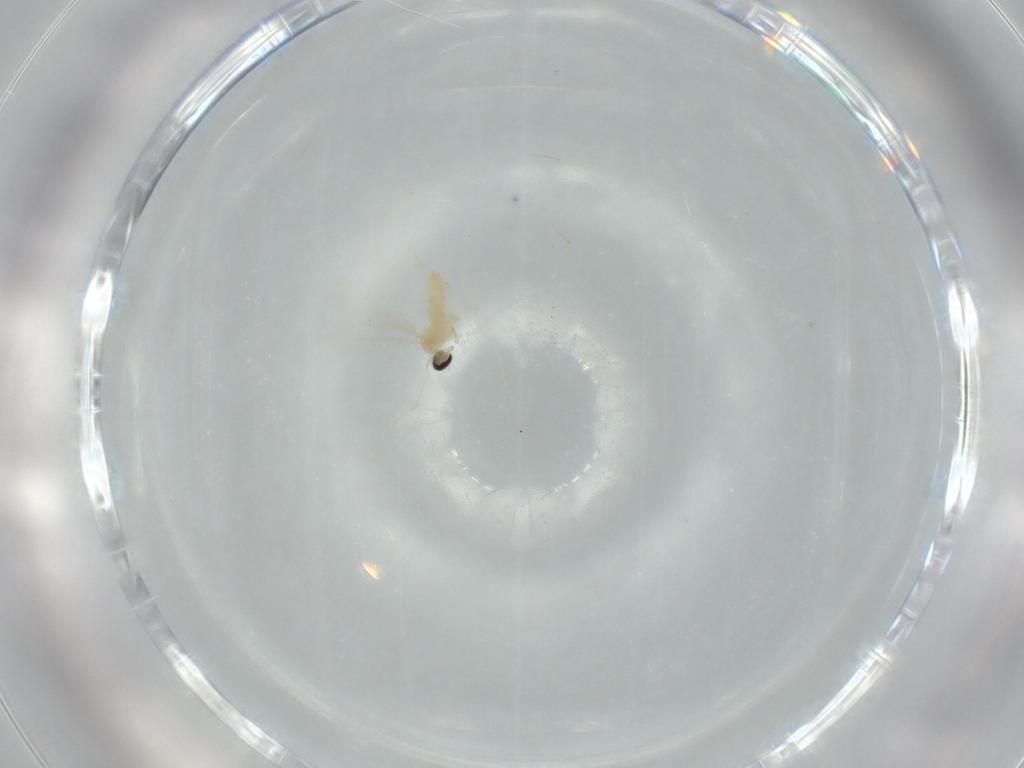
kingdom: Animalia
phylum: Arthropoda
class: Insecta
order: Diptera
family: Cecidomyiidae
